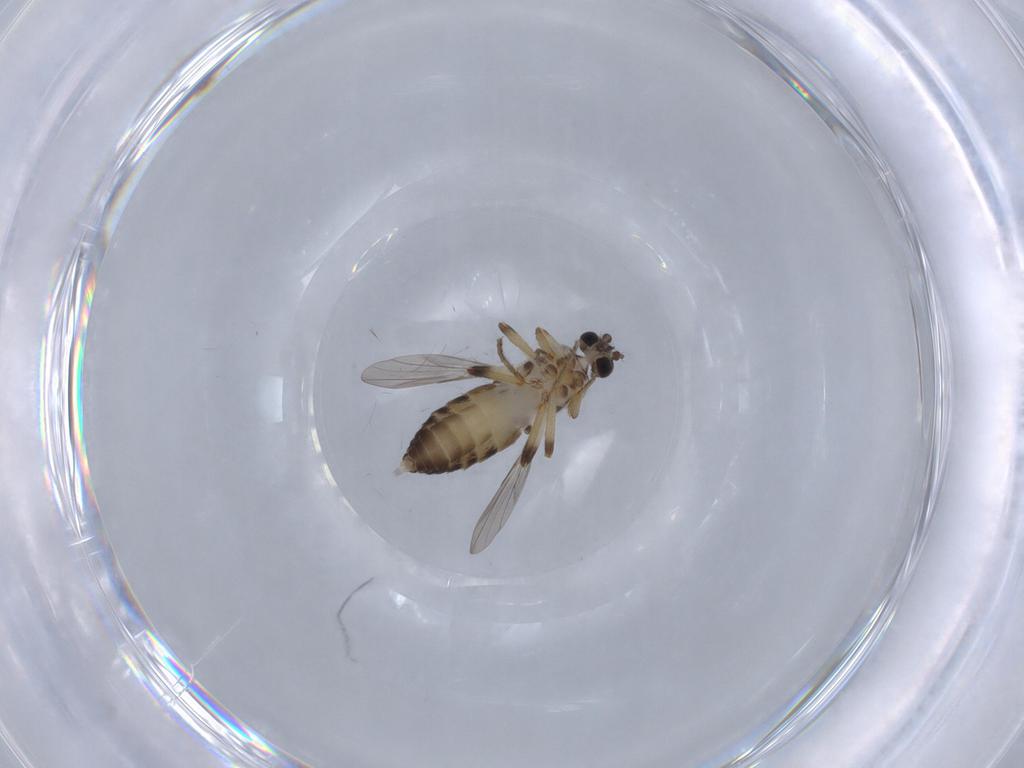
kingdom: Animalia
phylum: Arthropoda
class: Insecta
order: Diptera
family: Ceratopogonidae
